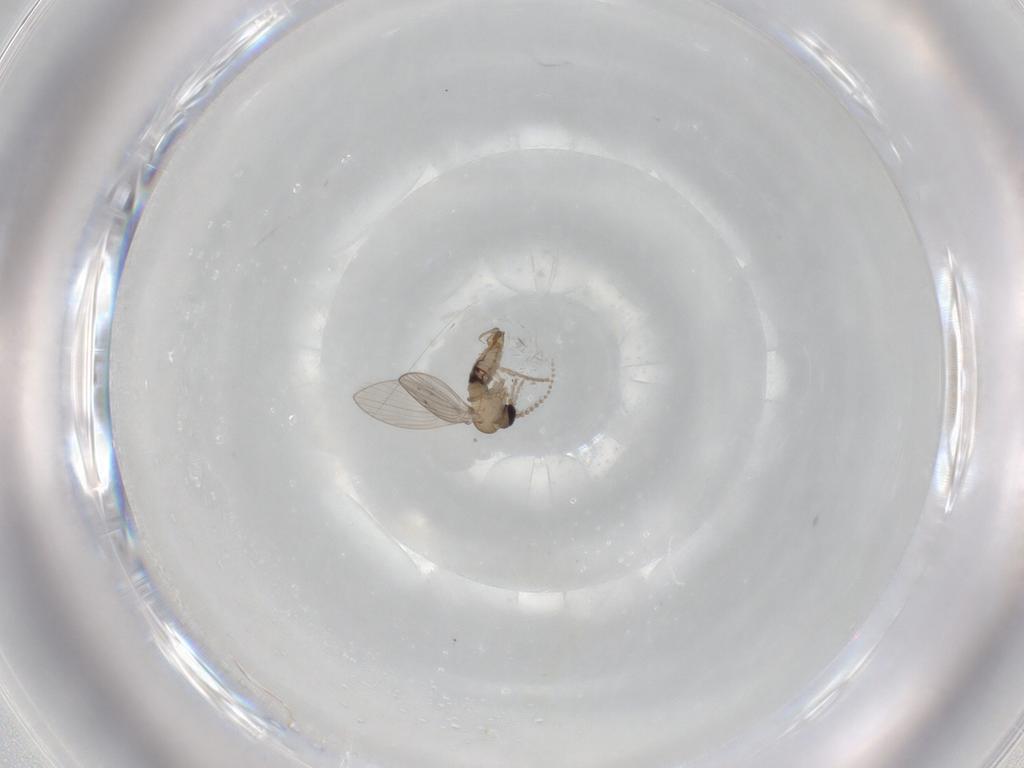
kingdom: Animalia
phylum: Arthropoda
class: Insecta
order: Diptera
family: Psychodidae
